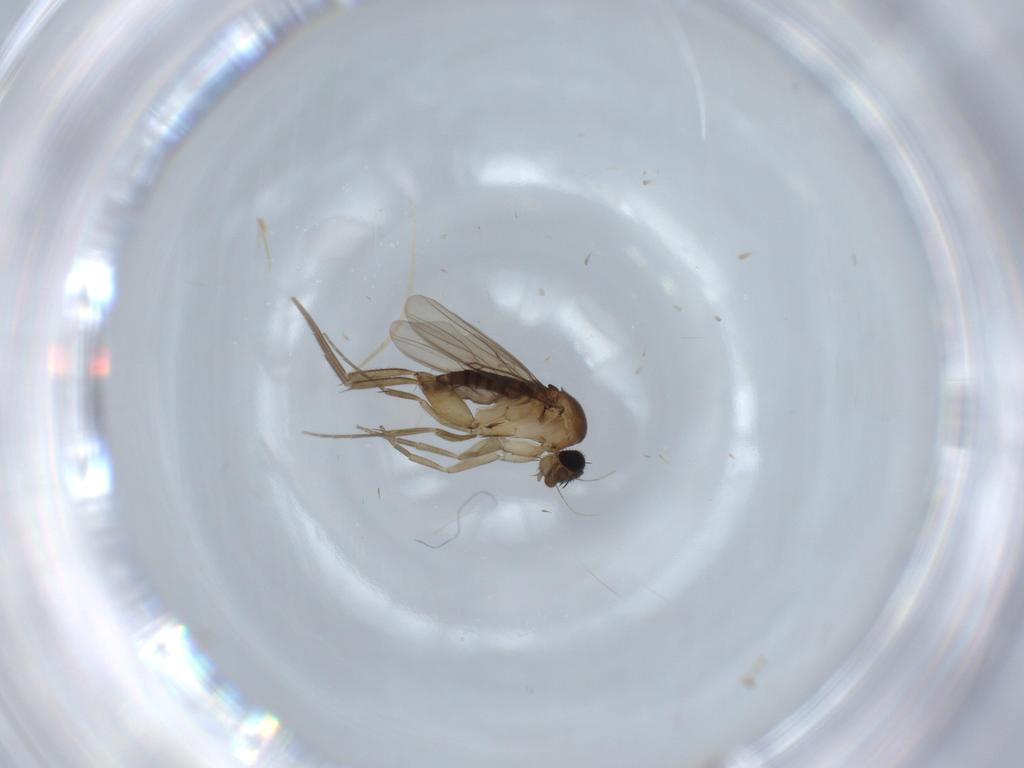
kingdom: Animalia
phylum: Arthropoda
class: Insecta
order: Diptera
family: Phoridae
